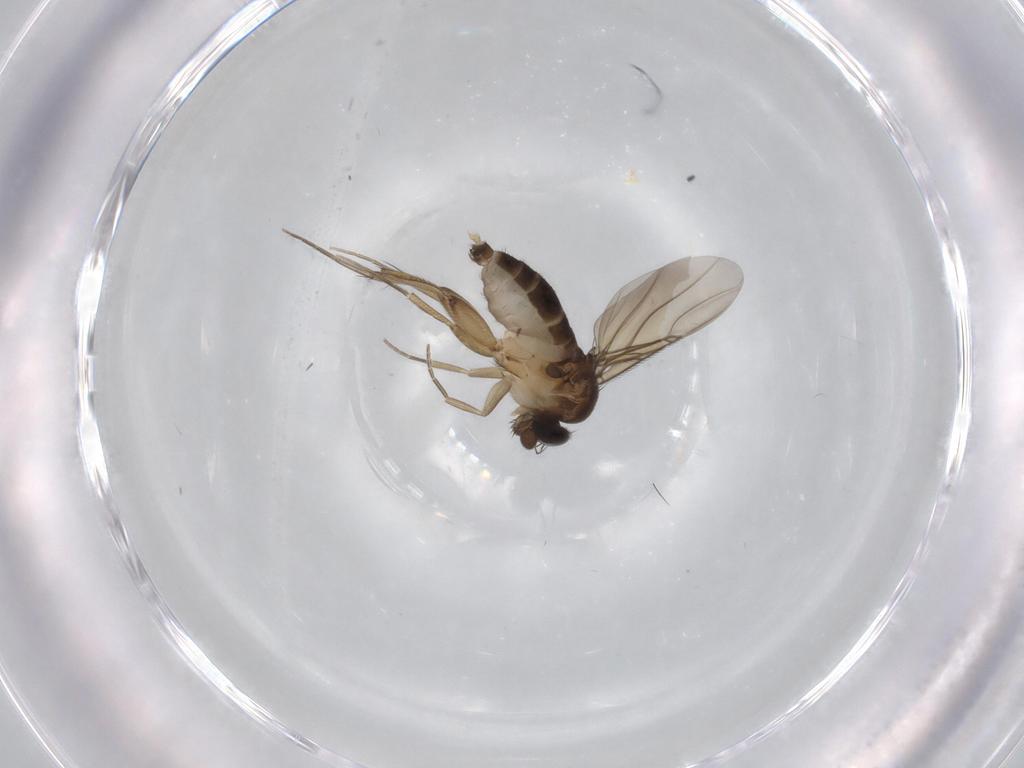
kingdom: Animalia
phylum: Arthropoda
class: Insecta
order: Diptera
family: Phoridae
